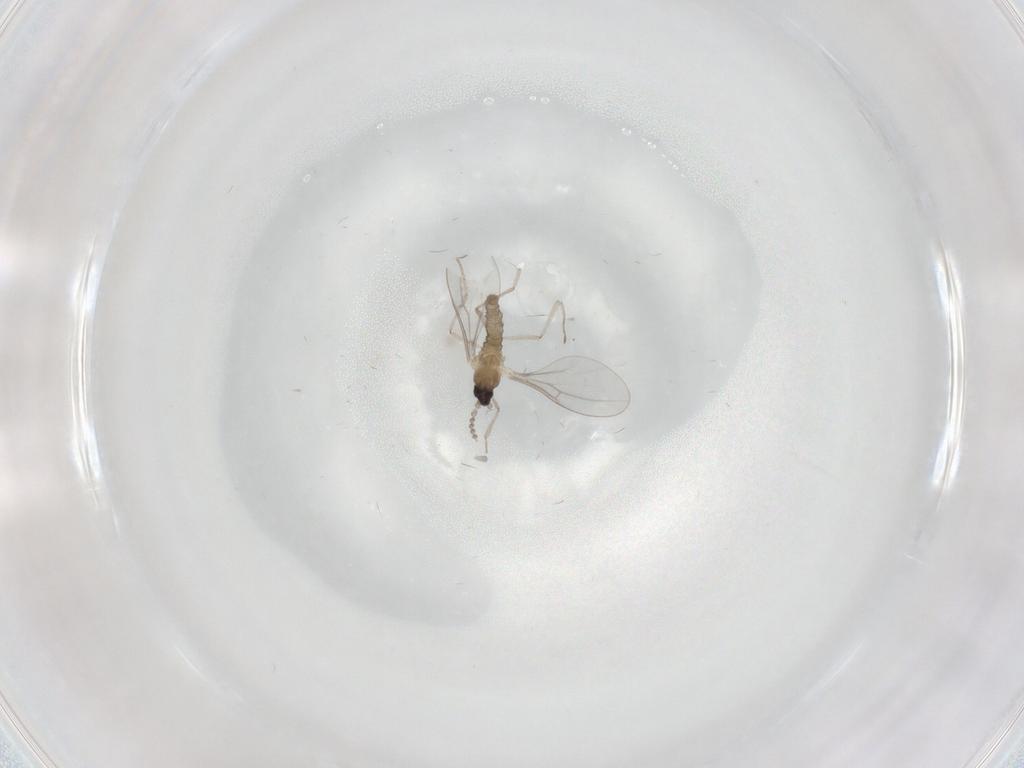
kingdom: Animalia
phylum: Arthropoda
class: Insecta
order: Diptera
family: Cecidomyiidae
